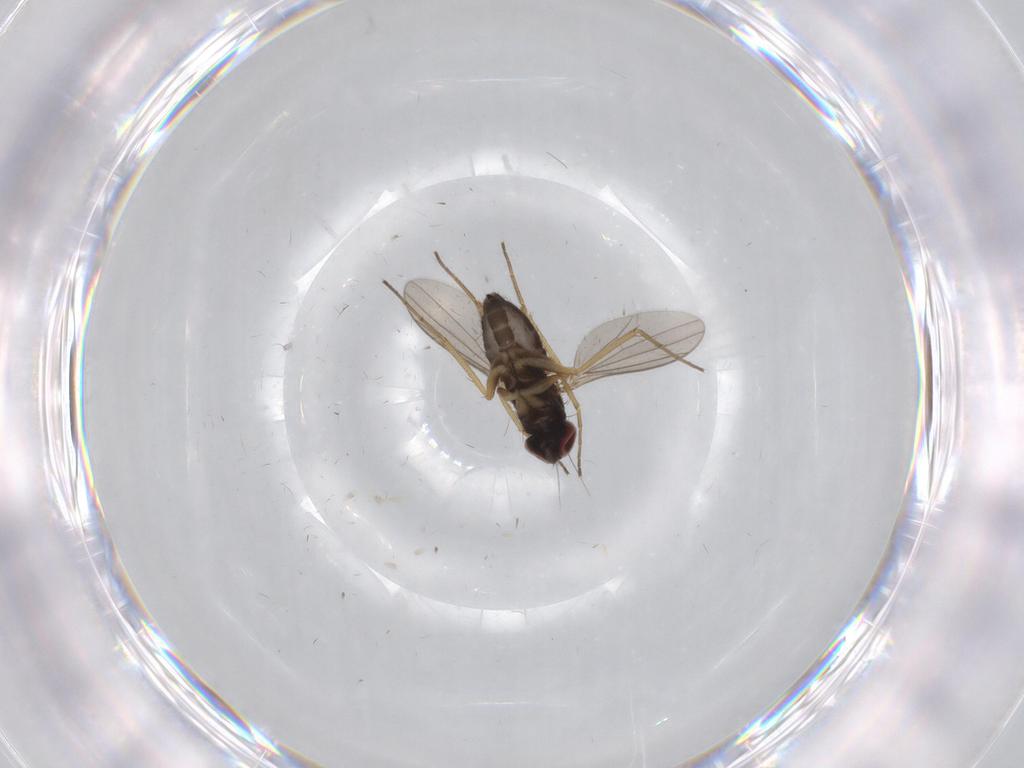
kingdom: Animalia
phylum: Arthropoda
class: Insecta
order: Diptera
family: Dolichopodidae
